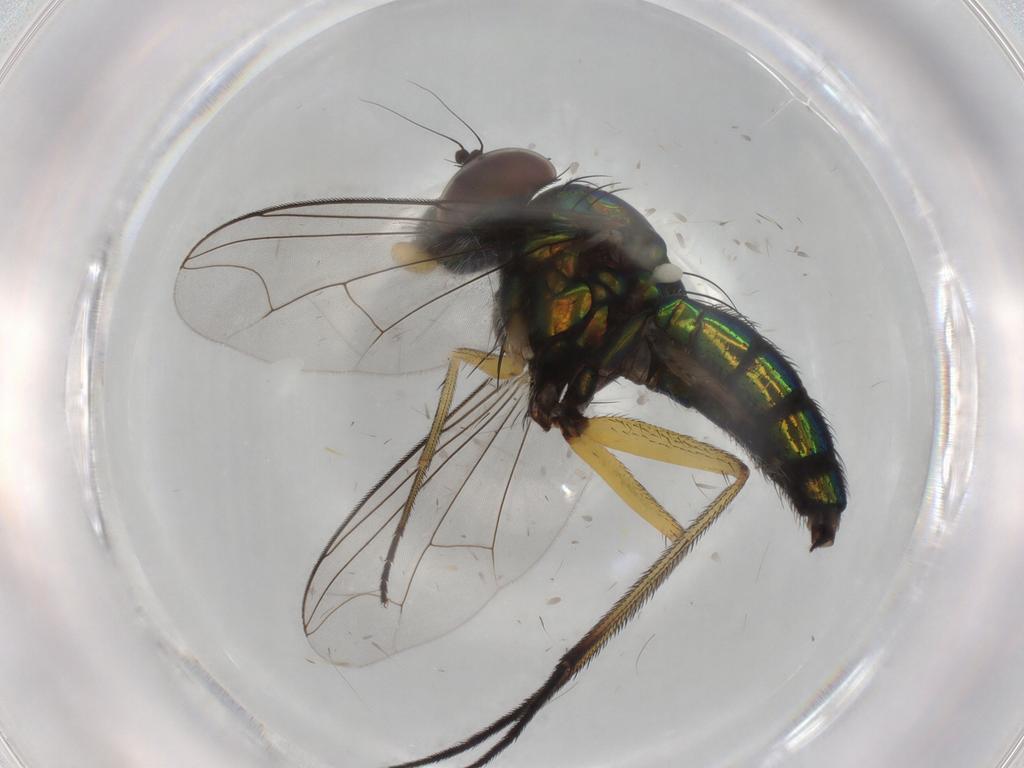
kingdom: Animalia
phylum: Arthropoda
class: Insecta
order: Diptera
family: Dolichopodidae
